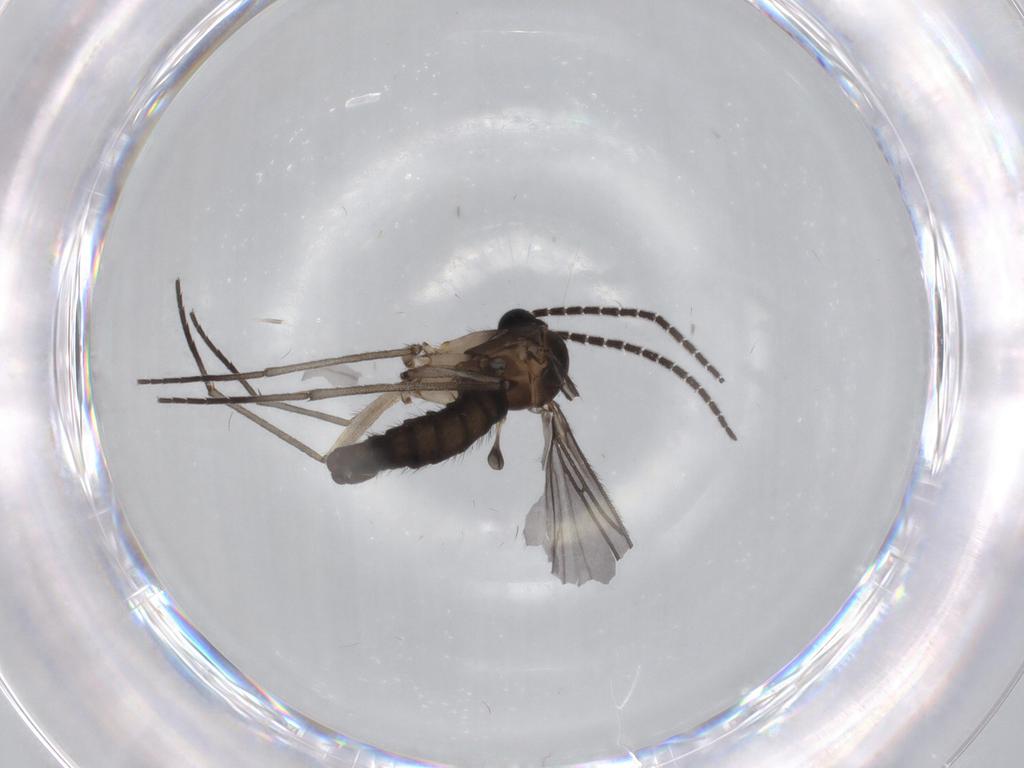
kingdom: Animalia
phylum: Arthropoda
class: Insecta
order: Diptera
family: Sciaridae
